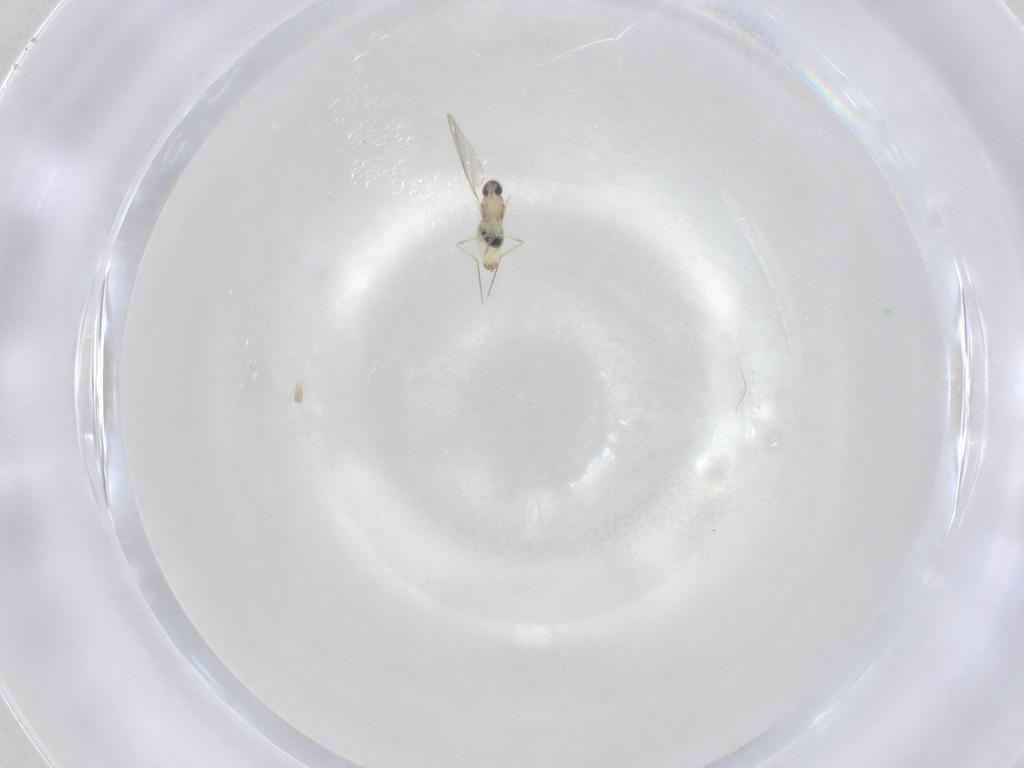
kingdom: Animalia
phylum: Arthropoda
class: Insecta
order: Diptera
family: Cecidomyiidae
